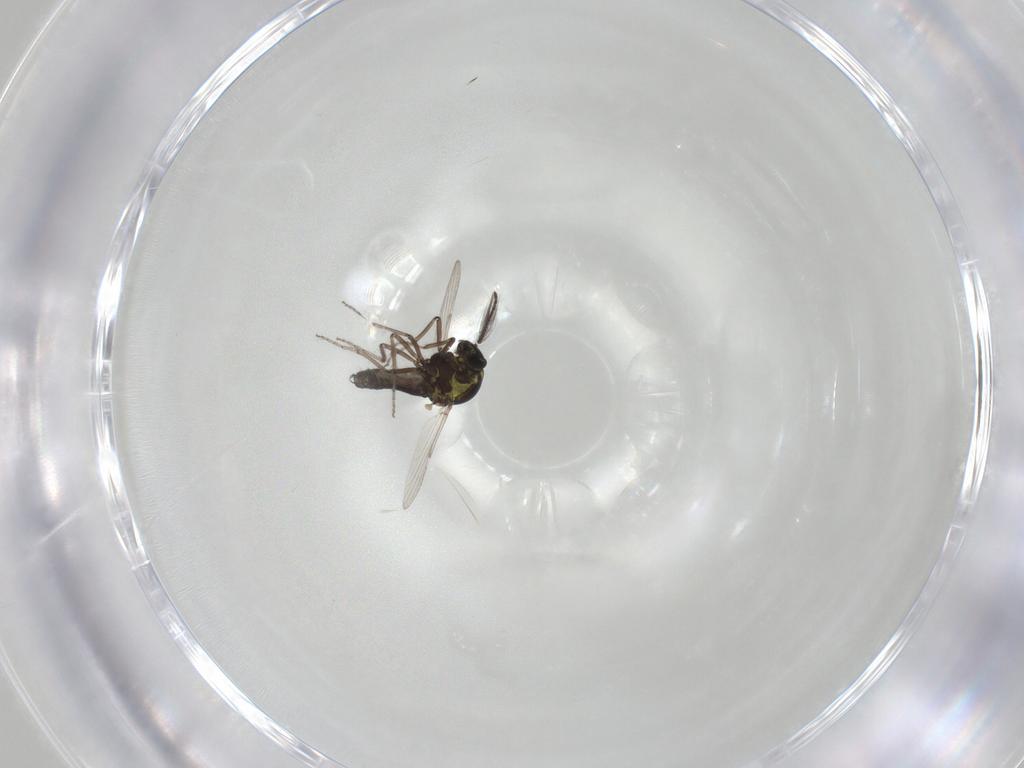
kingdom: Animalia
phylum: Arthropoda
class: Insecta
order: Diptera
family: Ceratopogonidae
